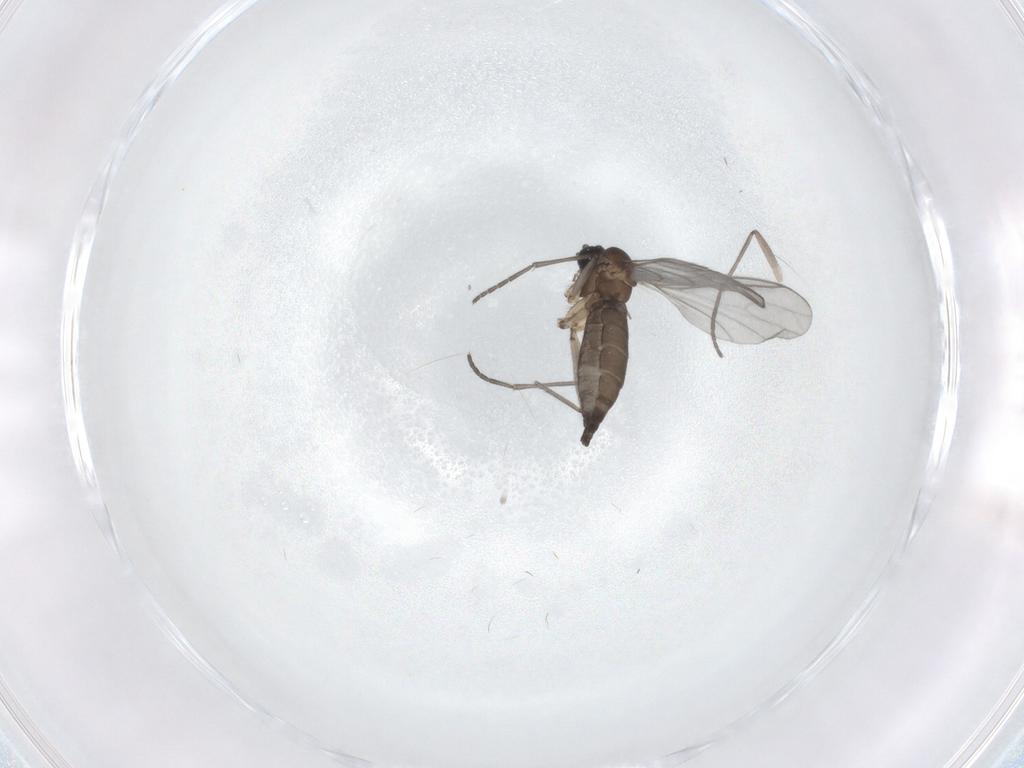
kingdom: Animalia
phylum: Arthropoda
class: Insecta
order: Diptera
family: Sciaridae
